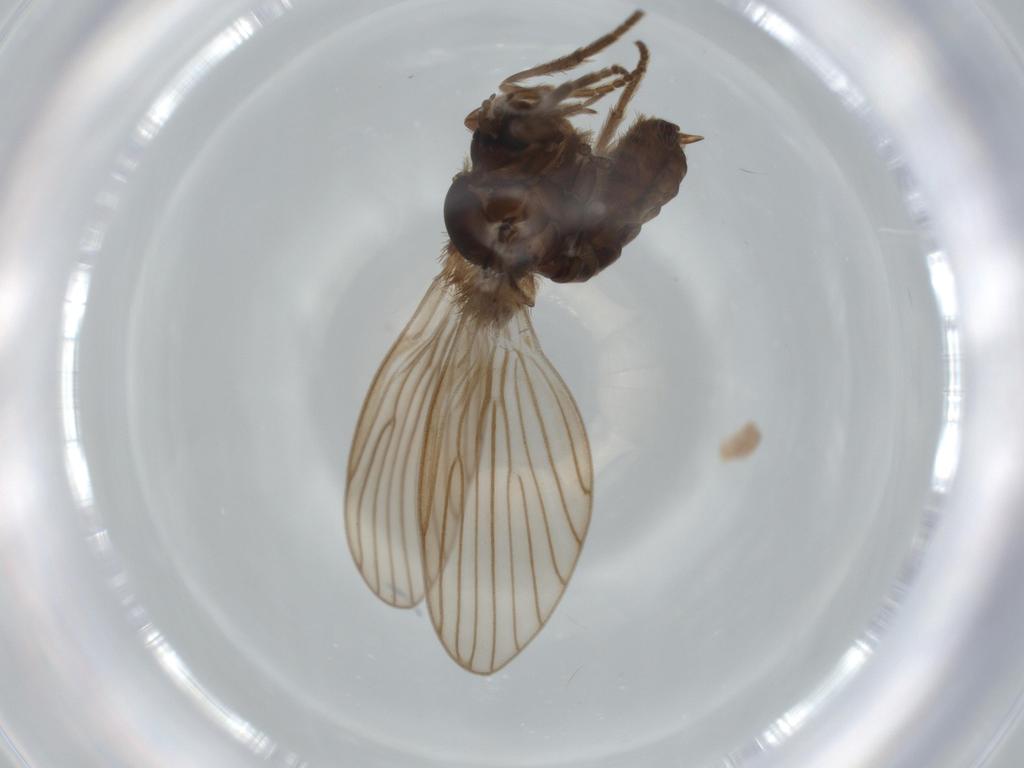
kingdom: Animalia
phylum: Arthropoda
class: Insecta
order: Diptera
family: Psychodidae
